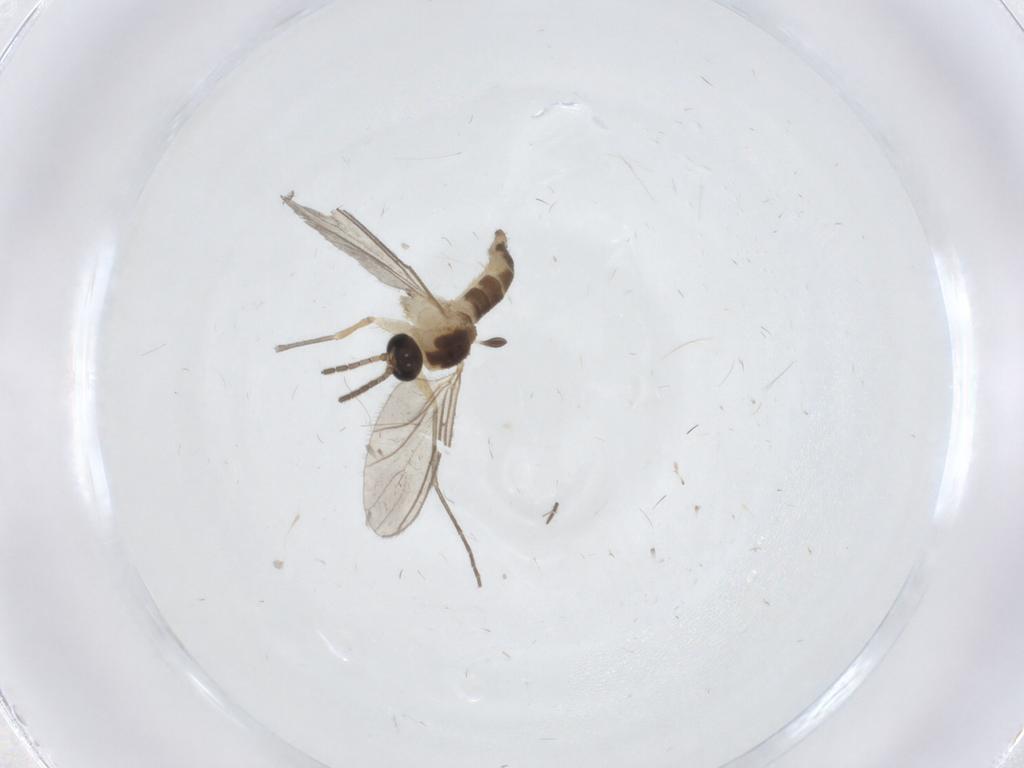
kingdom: Animalia
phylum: Arthropoda
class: Insecta
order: Diptera
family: Sciaridae
